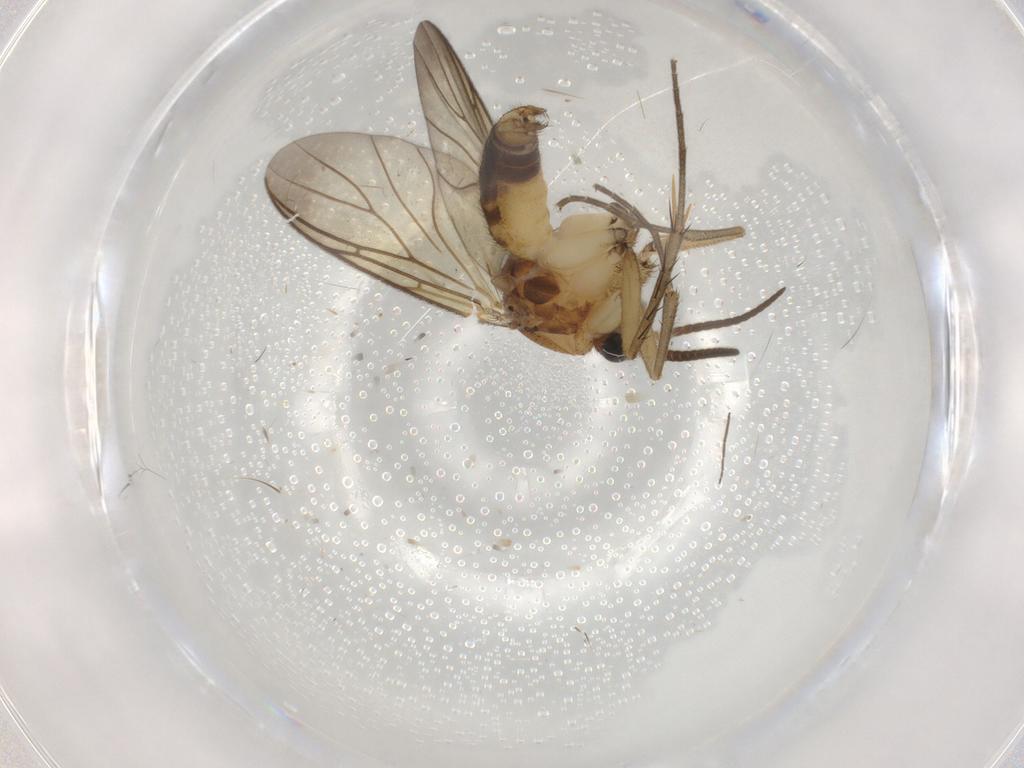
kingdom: Animalia
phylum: Arthropoda
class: Insecta
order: Diptera
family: Mycetophilidae
